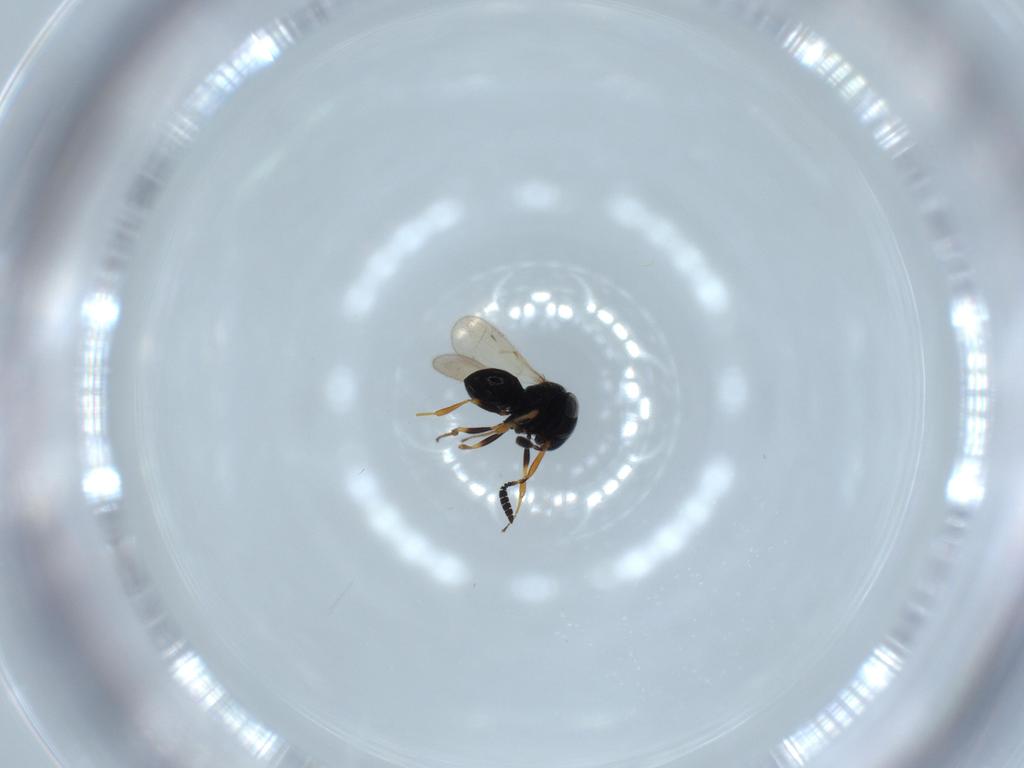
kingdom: Animalia
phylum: Arthropoda
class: Insecta
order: Hymenoptera
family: Scelionidae
